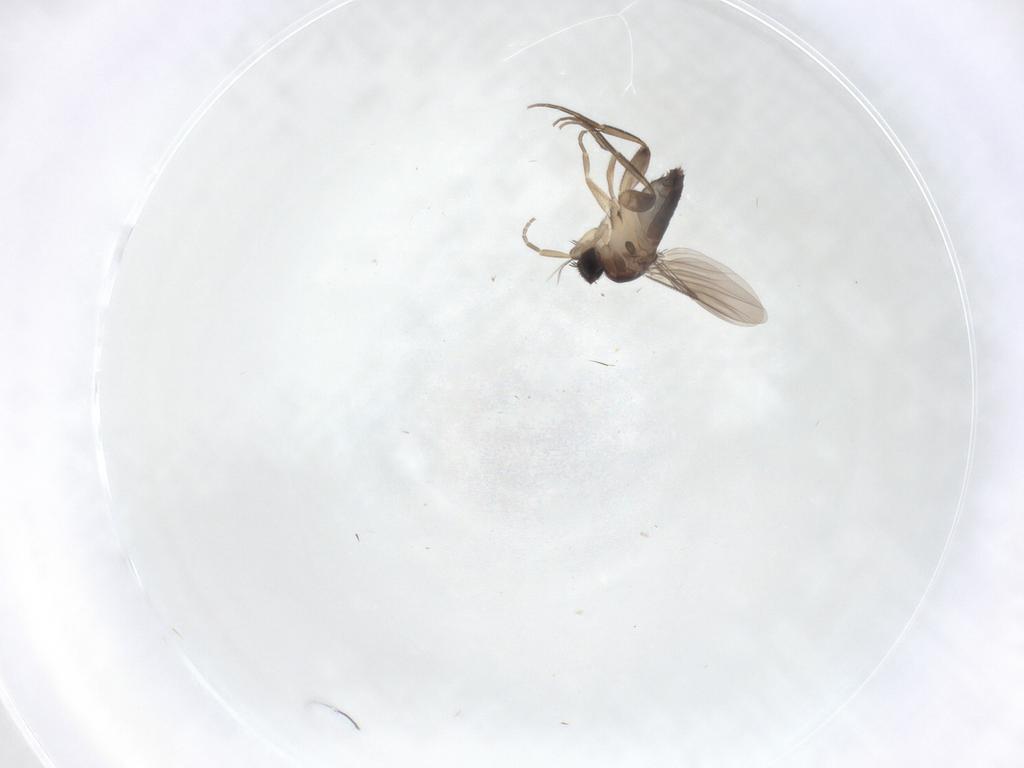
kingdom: Animalia
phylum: Arthropoda
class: Insecta
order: Diptera
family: Phoridae
